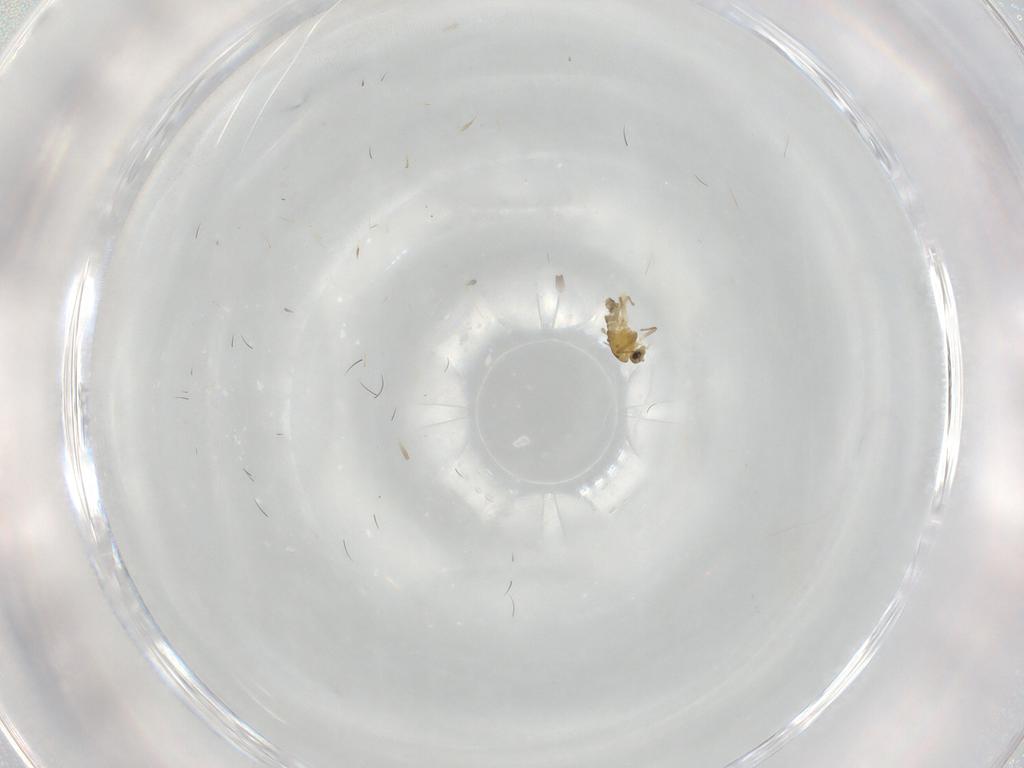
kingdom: Animalia
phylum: Arthropoda
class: Insecta
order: Diptera
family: Chironomidae
